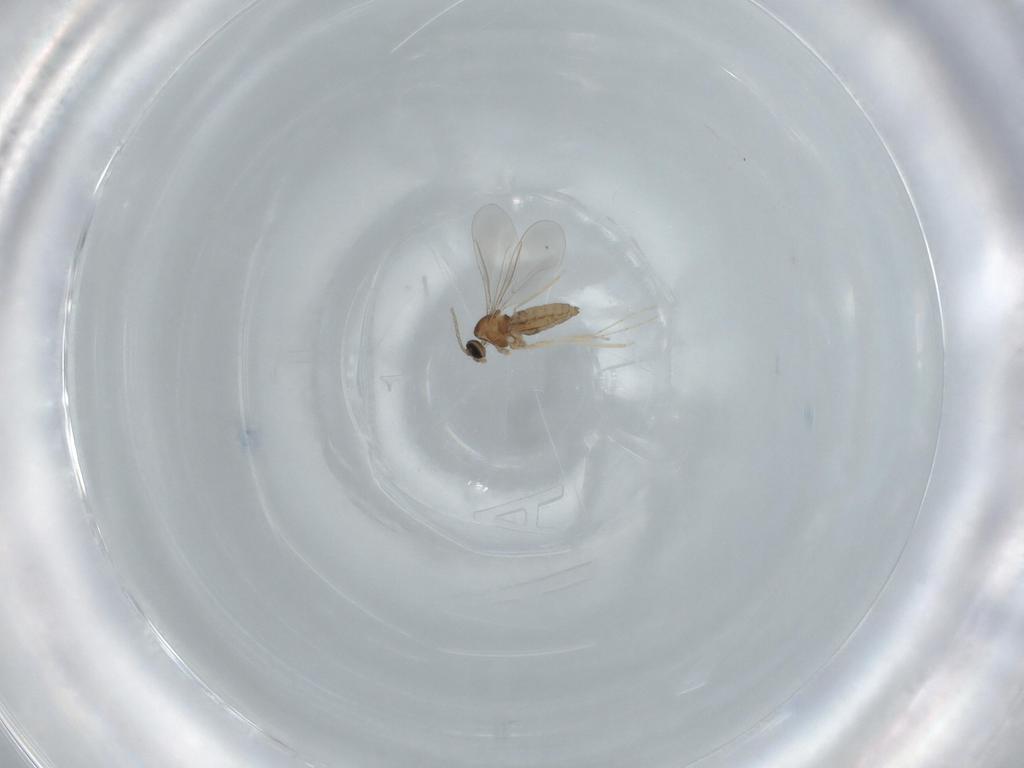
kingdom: Animalia
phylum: Arthropoda
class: Insecta
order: Diptera
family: Cecidomyiidae
